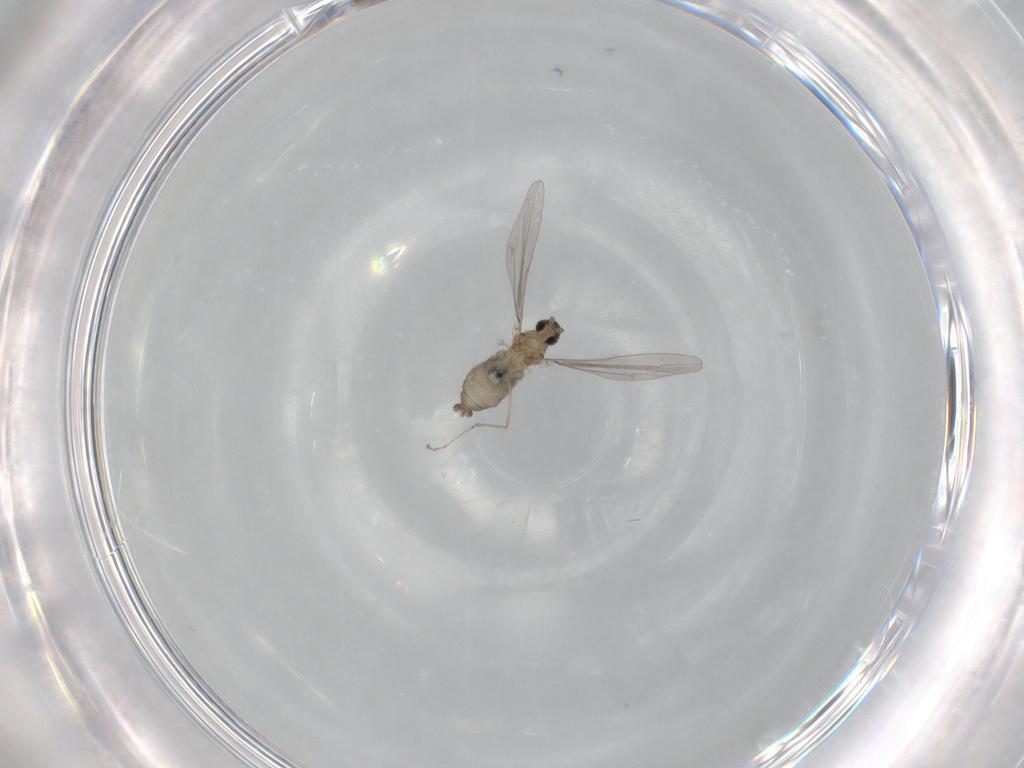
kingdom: Animalia
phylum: Arthropoda
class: Insecta
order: Diptera
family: Cecidomyiidae
